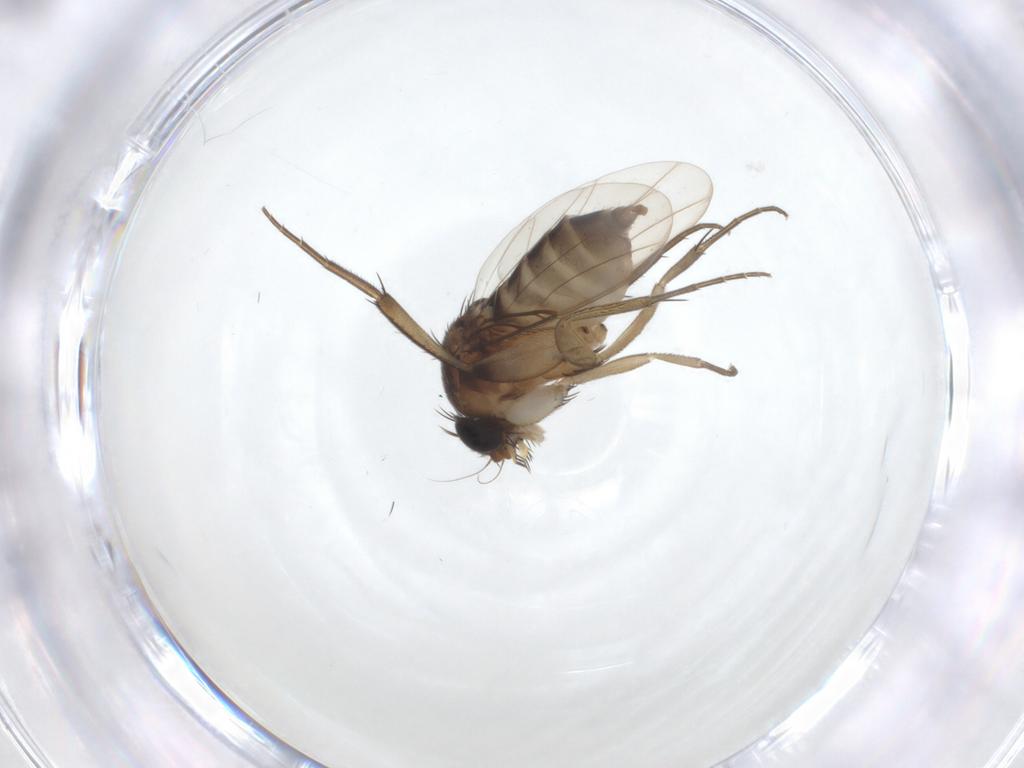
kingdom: Animalia
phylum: Arthropoda
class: Insecta
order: Diptera
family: Phoridae
